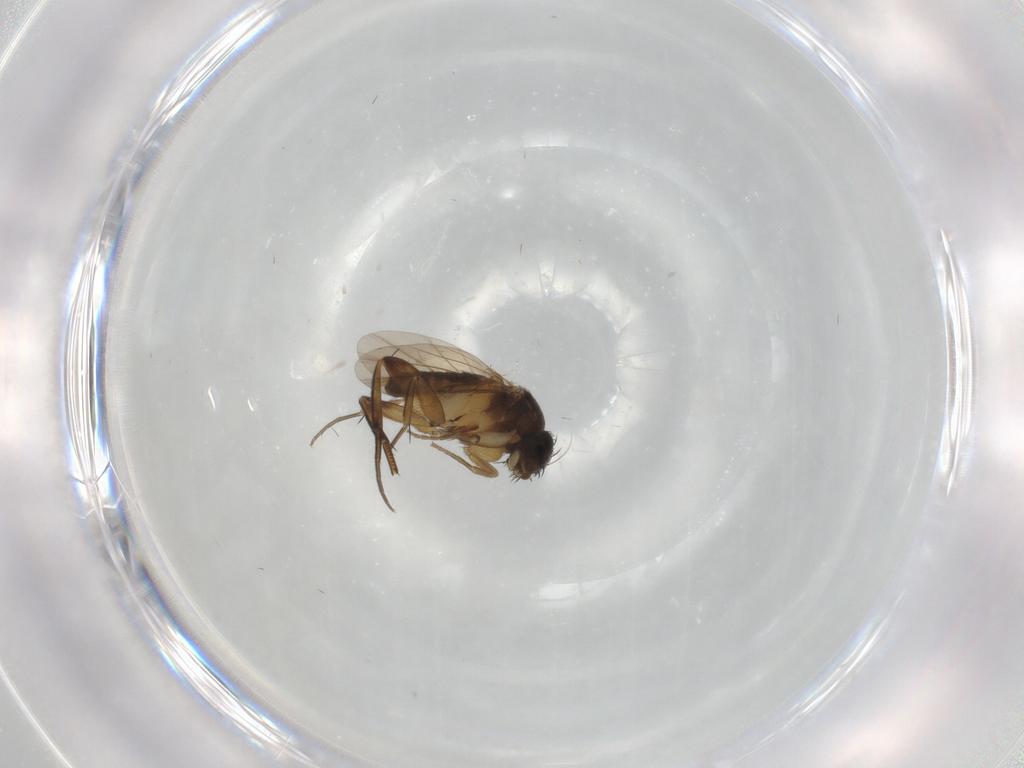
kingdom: Animalia
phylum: Arthropoda
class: Insecta
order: Diptera
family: Phoridae
